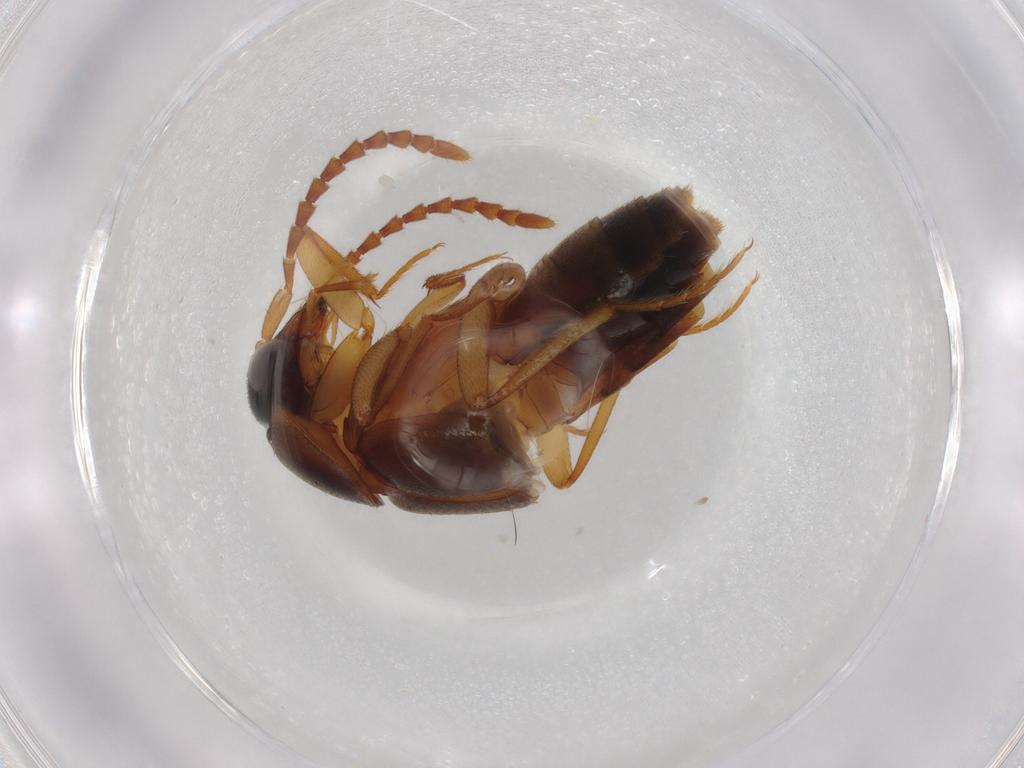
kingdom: Animalia
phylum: Arthropoda
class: Insecta
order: Coleoptera
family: Staphylinidae
